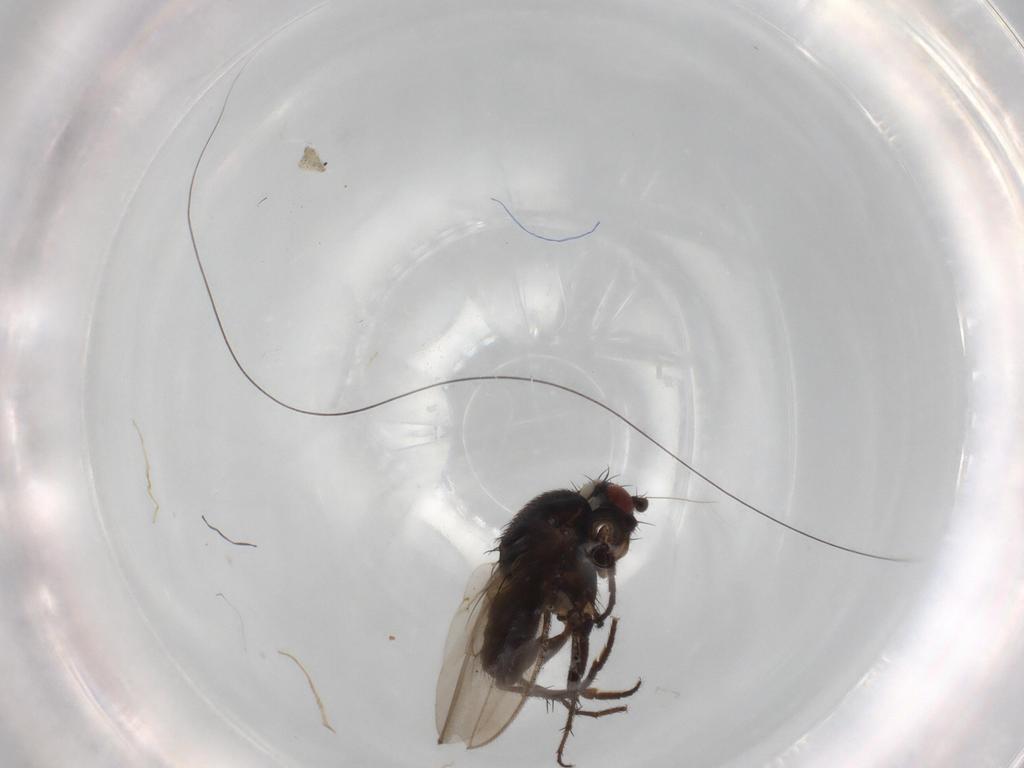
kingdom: Animalia
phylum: Arthropoda
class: Insecta
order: Diptera
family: Sphaeroceridae
